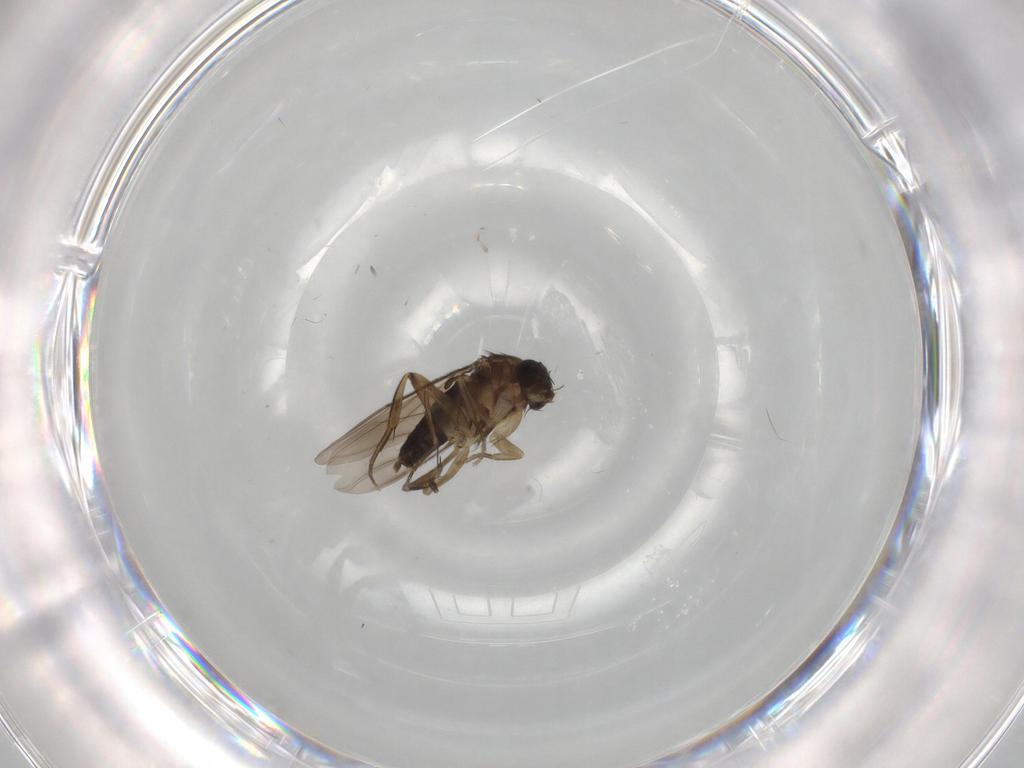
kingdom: Animalia
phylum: Arthropoda
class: Insecta
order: Diptera
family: Phoridae
